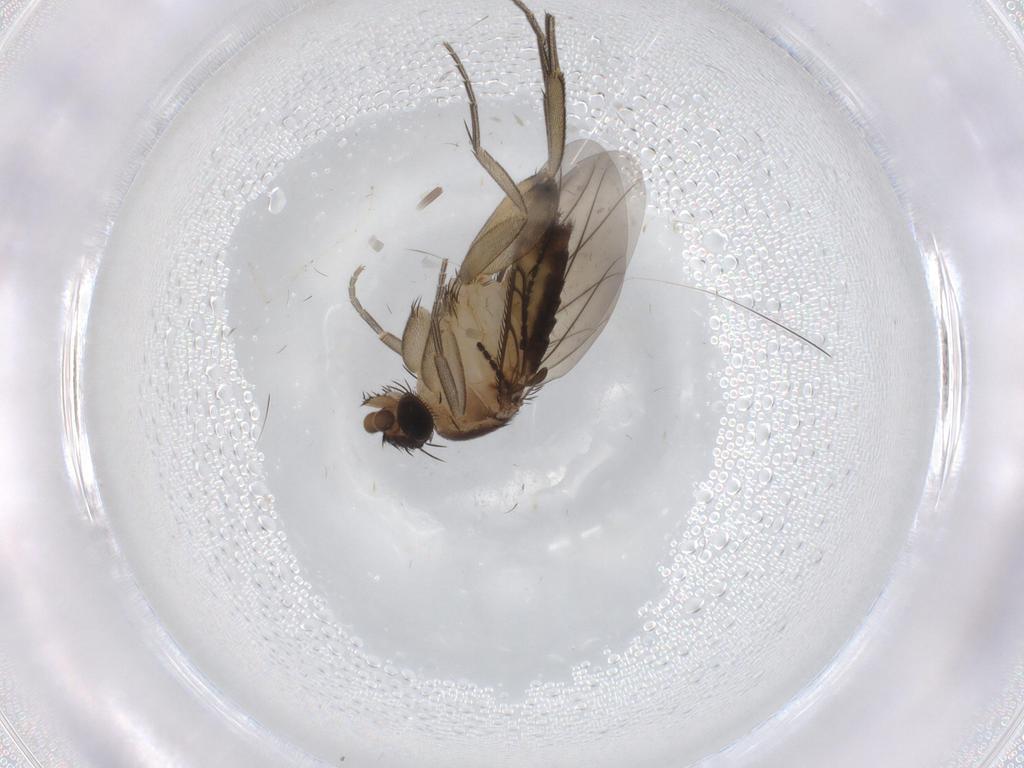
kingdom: Animalia
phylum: Arthropoda
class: Insecta
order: Diptera
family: Phoridae
